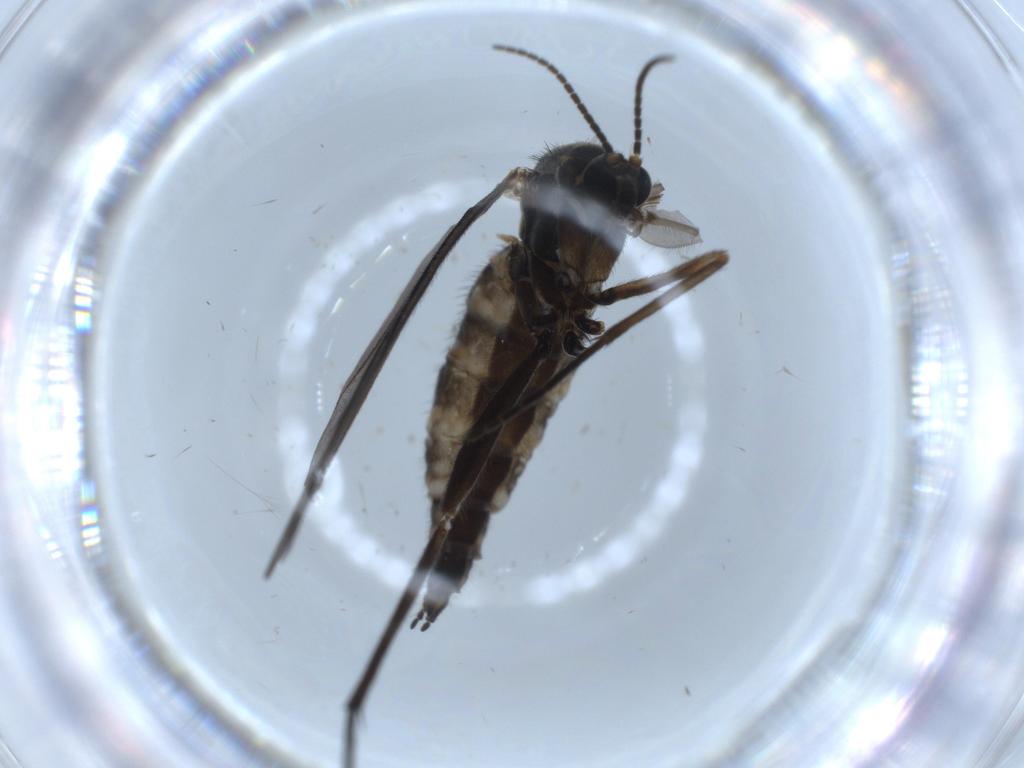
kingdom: Animalia
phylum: Arthropoda
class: Insecta
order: Diptera
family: Sciaridae
